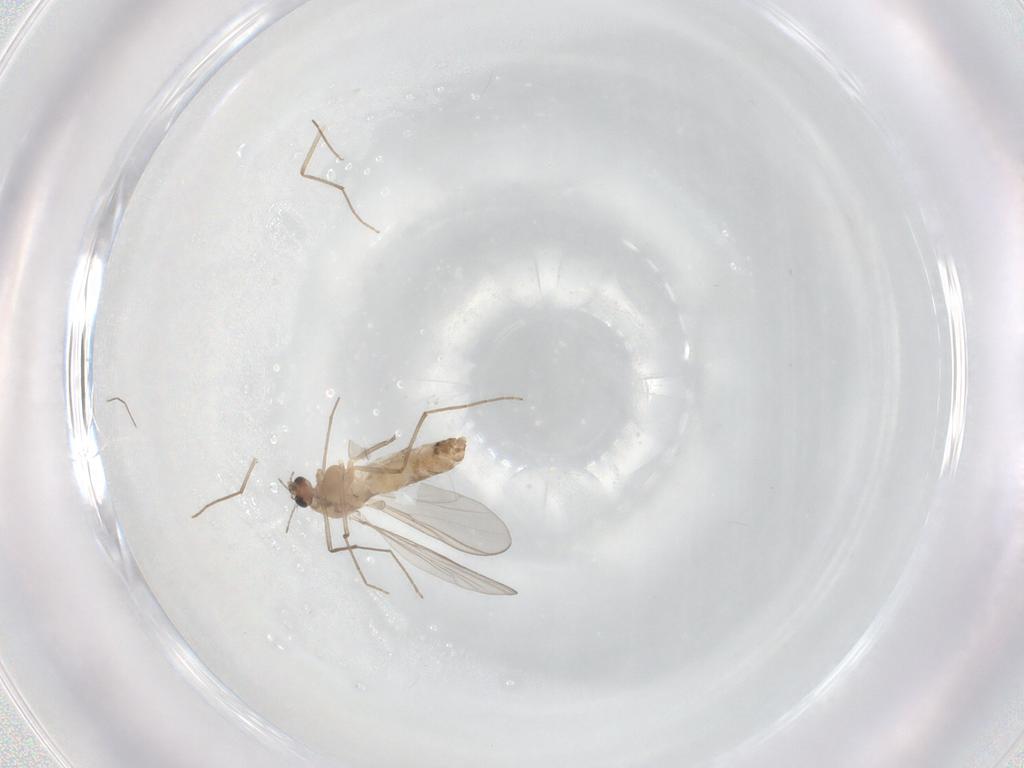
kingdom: Animalia
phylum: Arthropoda
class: Insecta
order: Diptera
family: Chironomidae
